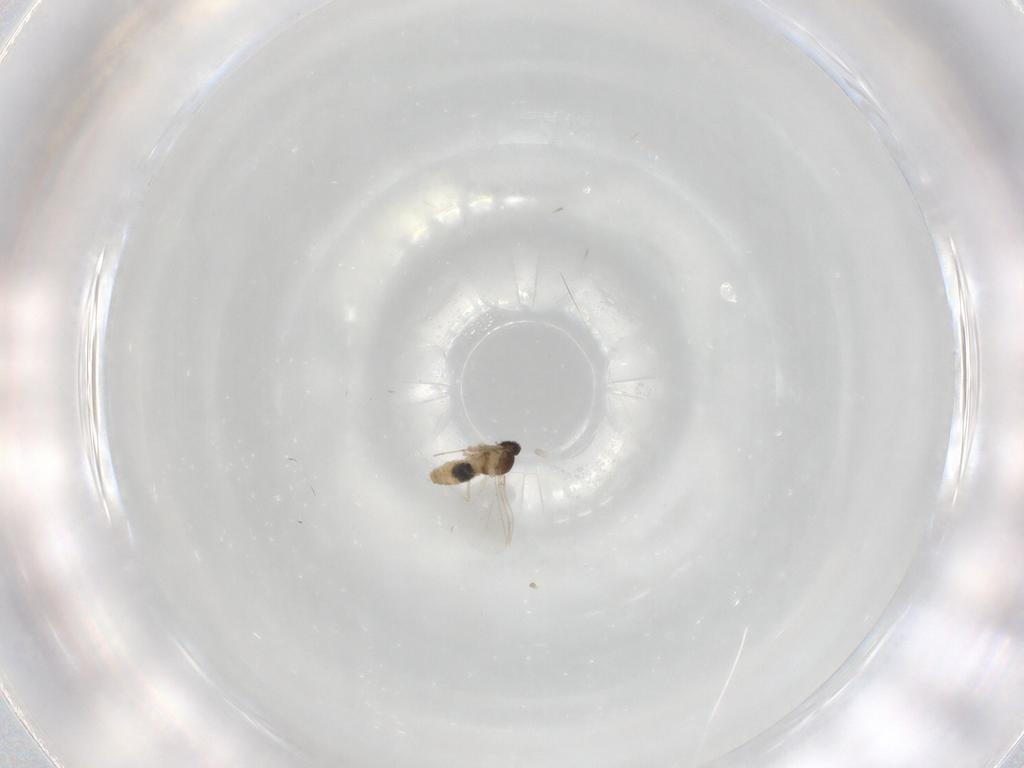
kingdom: Animalia
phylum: Arthropoda
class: Insecta
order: Diptera
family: Cecidomyiidae
